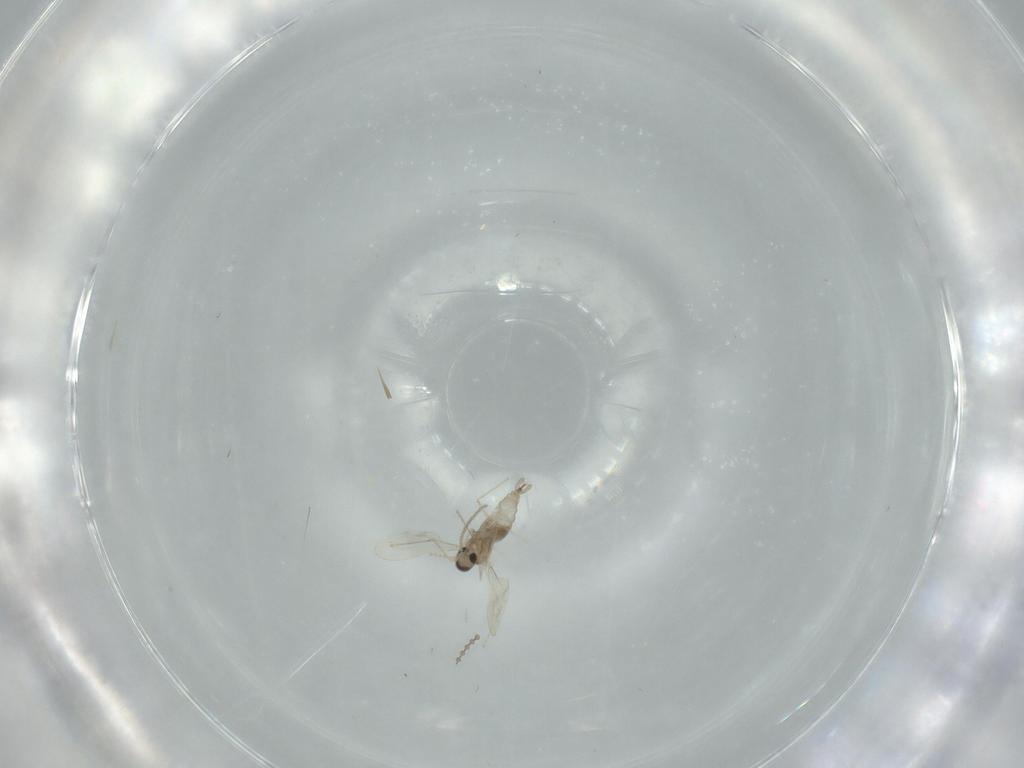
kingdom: Animalia
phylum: Arthropoda
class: Insecta
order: Diptera
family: Cecidomyiidae
